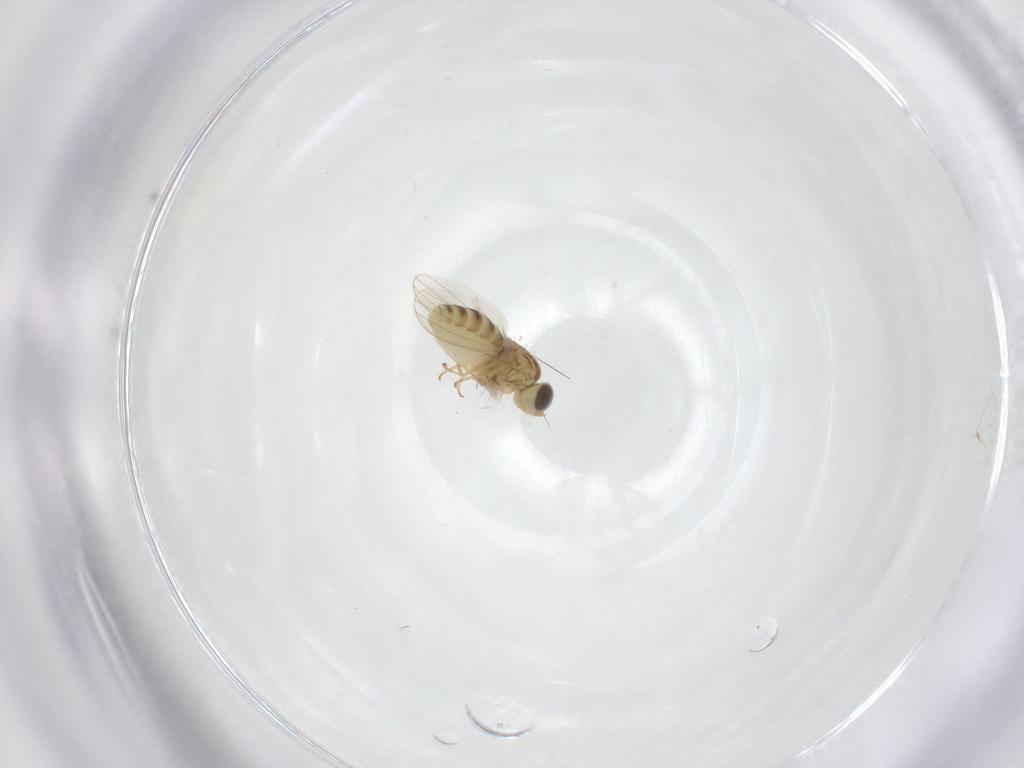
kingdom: Animalia
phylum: Arthropoda
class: Insecta
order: Diptera
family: Chyromyidae
